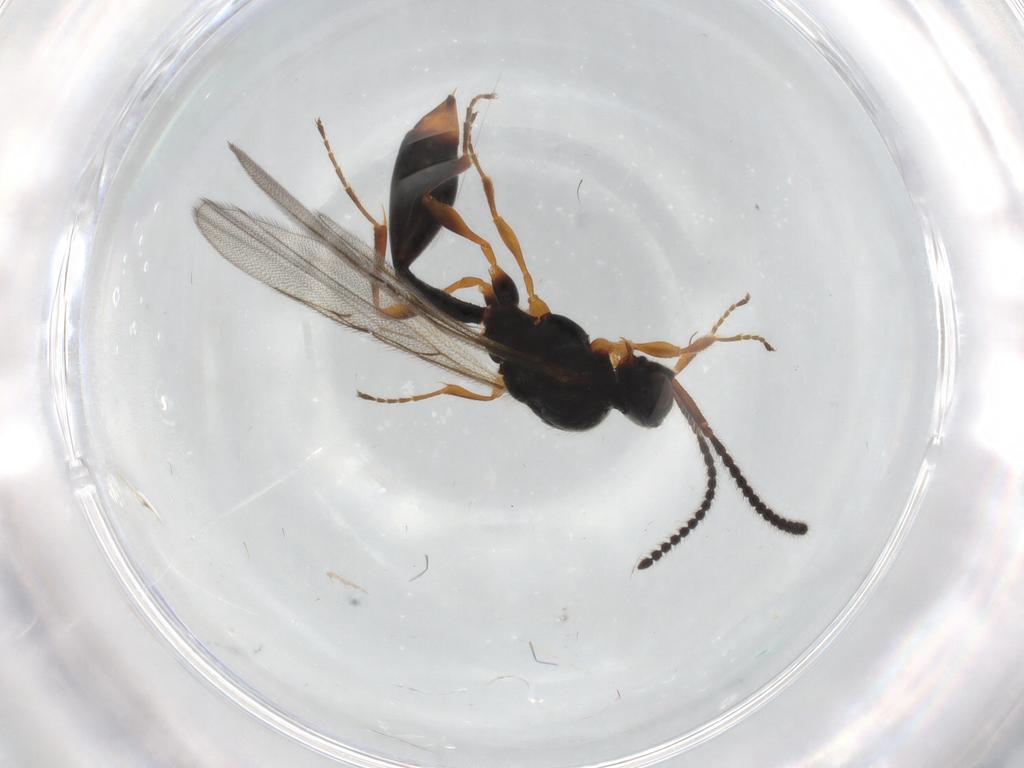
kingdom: Animalia
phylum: Arthropoda
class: Insecta
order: Hymenoptera
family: Diapriidae
